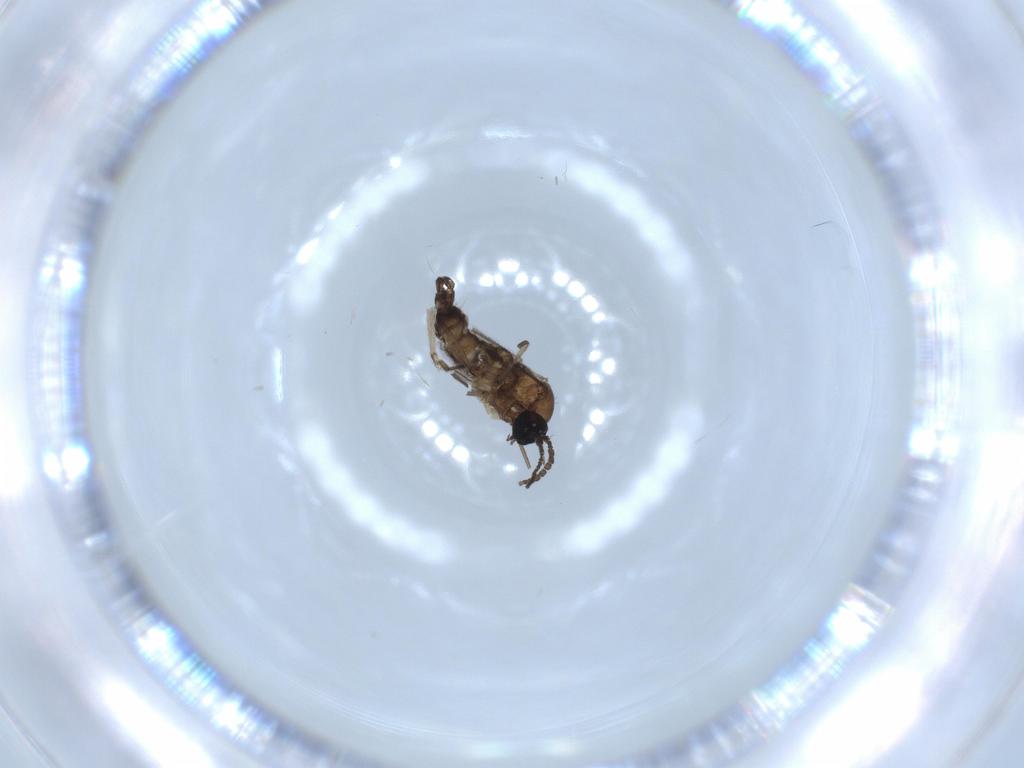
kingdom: Animalia
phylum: Arthropoda
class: Insecta
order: Diptera
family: Sciaridae
